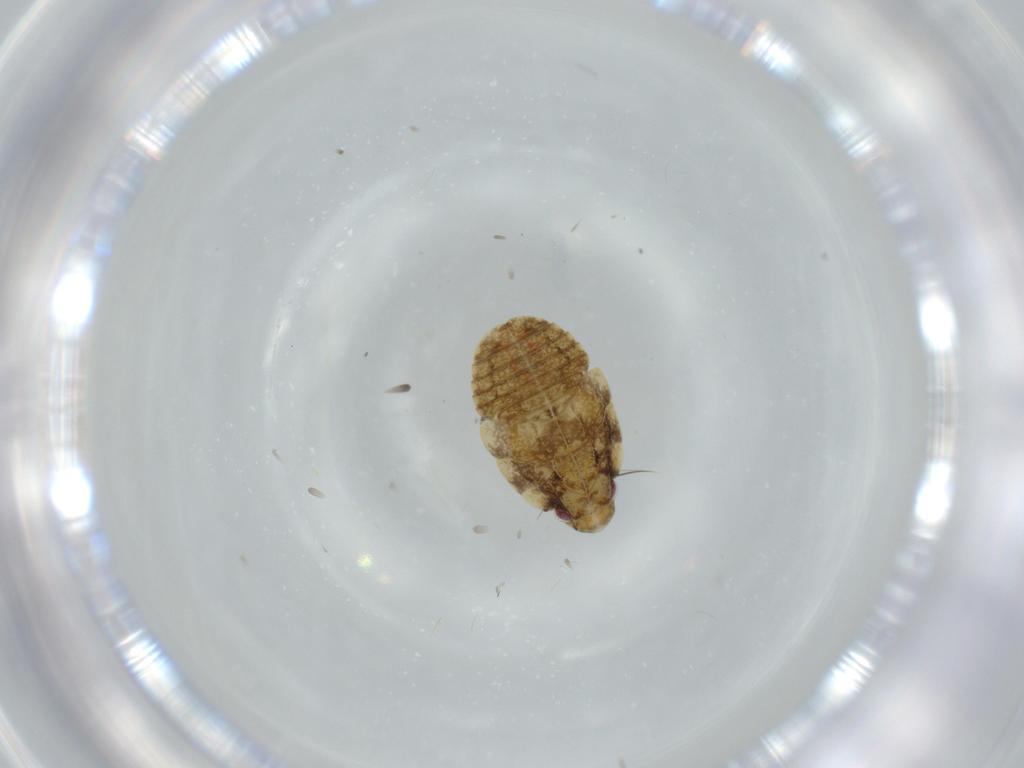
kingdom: Animalia
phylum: Arthropoda
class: Insecta
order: Hemiptera
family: Flatidae
